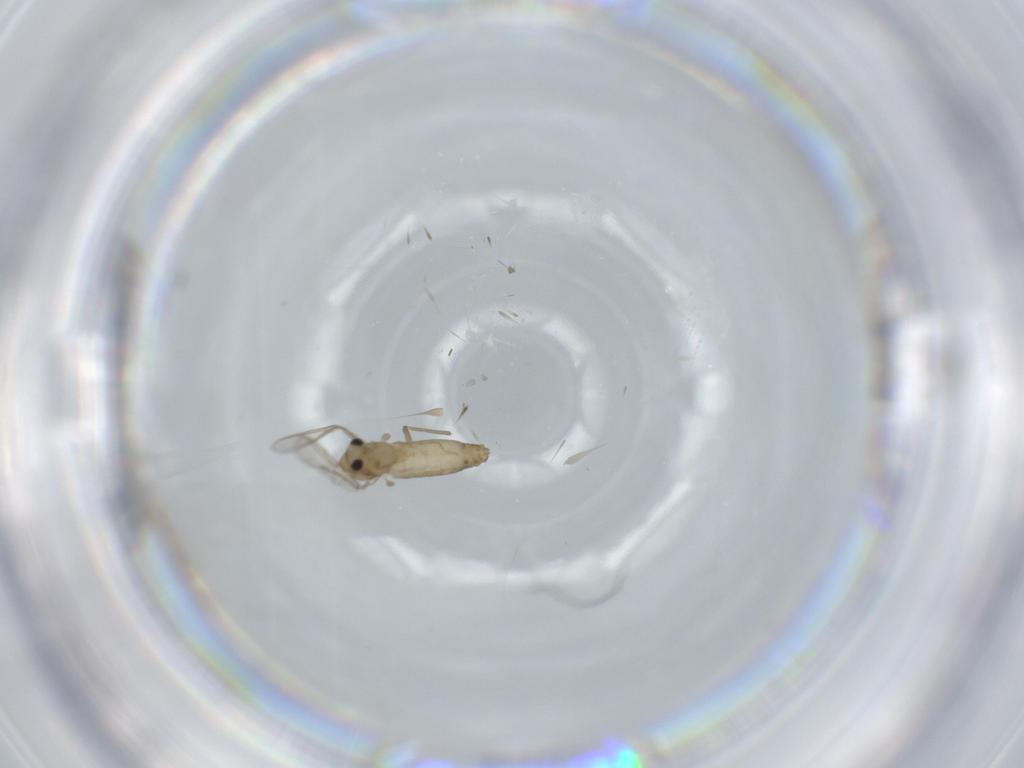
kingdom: Animalia
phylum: Arthropoda
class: Insecta
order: Diptera
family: Chironomidae
